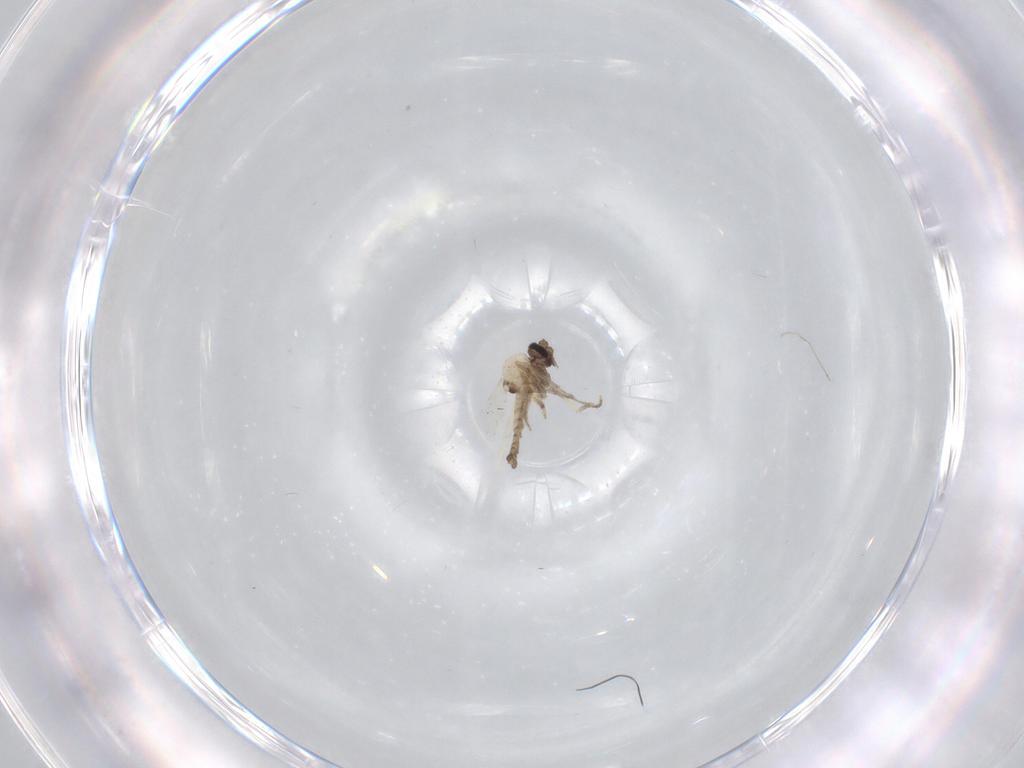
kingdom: Animalia
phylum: Arthropoda
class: Insecta
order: Diptera
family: Ceratopogonidae
